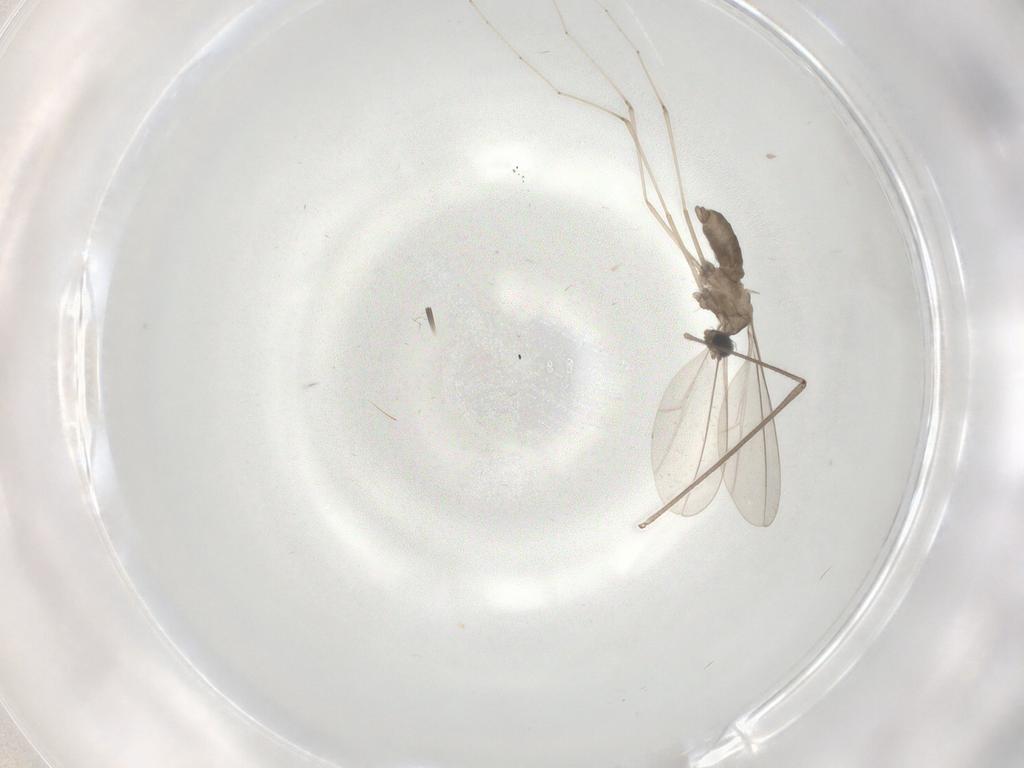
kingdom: Animalia
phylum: Arthropoda
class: Insecta
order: Diptera
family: Cecidomyiidae
